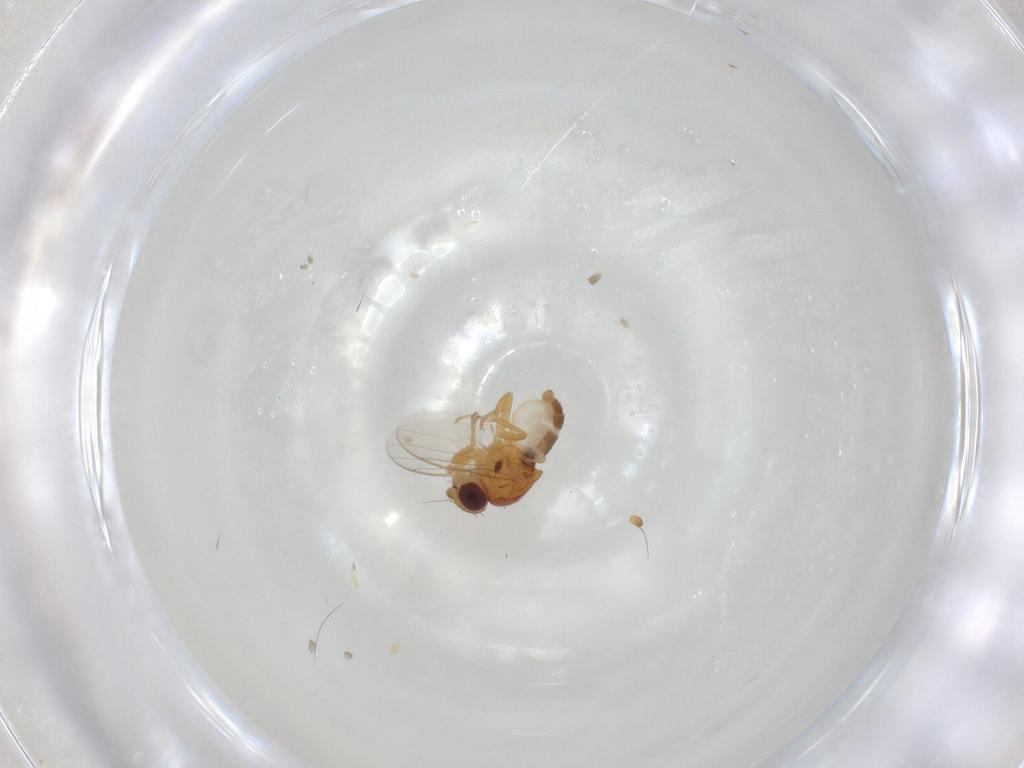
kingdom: Animalia
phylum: Arthropoda
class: Insecta
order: Diptera
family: Chloropidae
